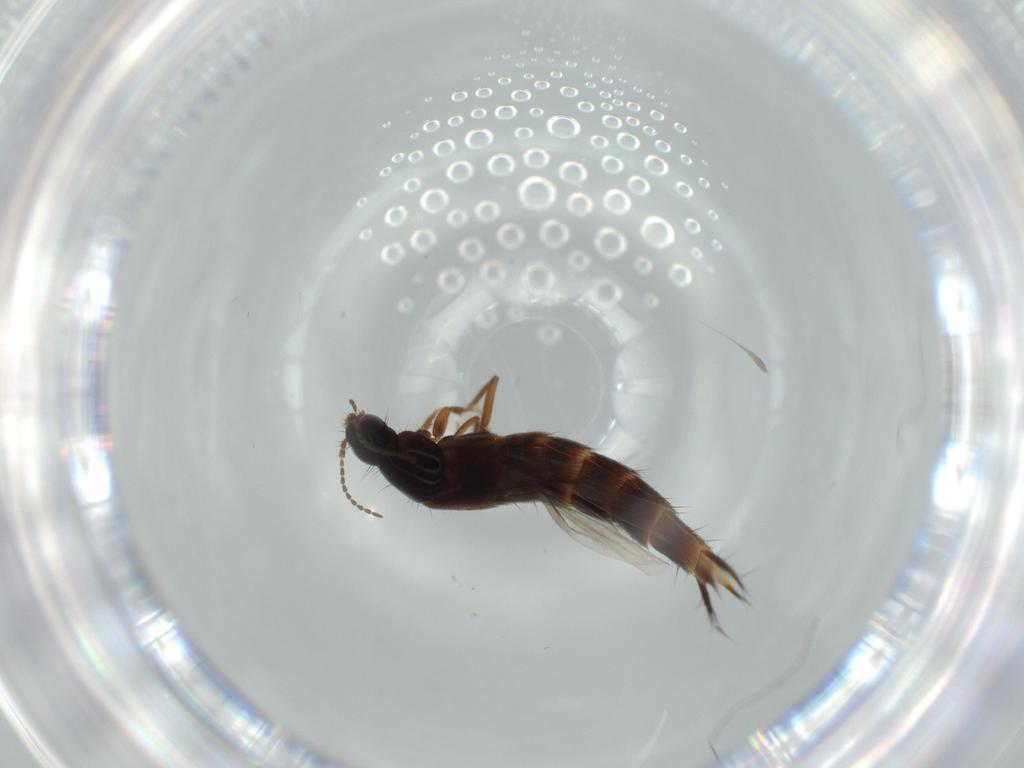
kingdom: Animalia
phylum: Arthropoda
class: Insecta
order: Coleoptera
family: Staphylinidae
